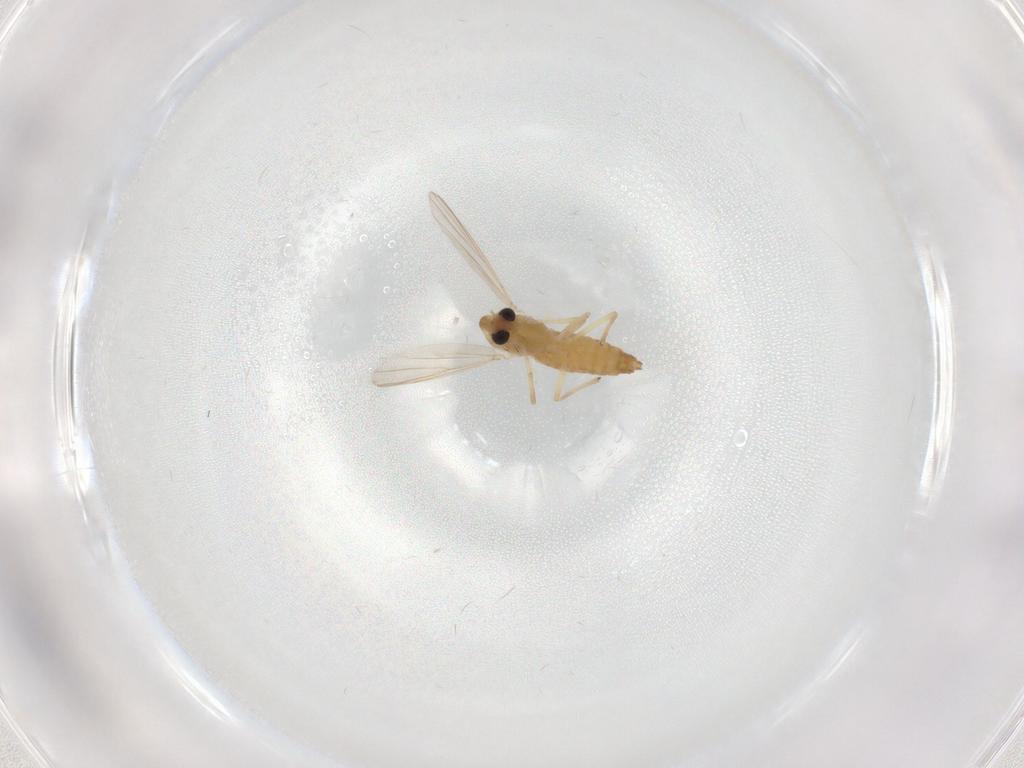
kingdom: Animalia
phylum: Arthropoda
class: Insecta
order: Diptera
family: Chironomidae
